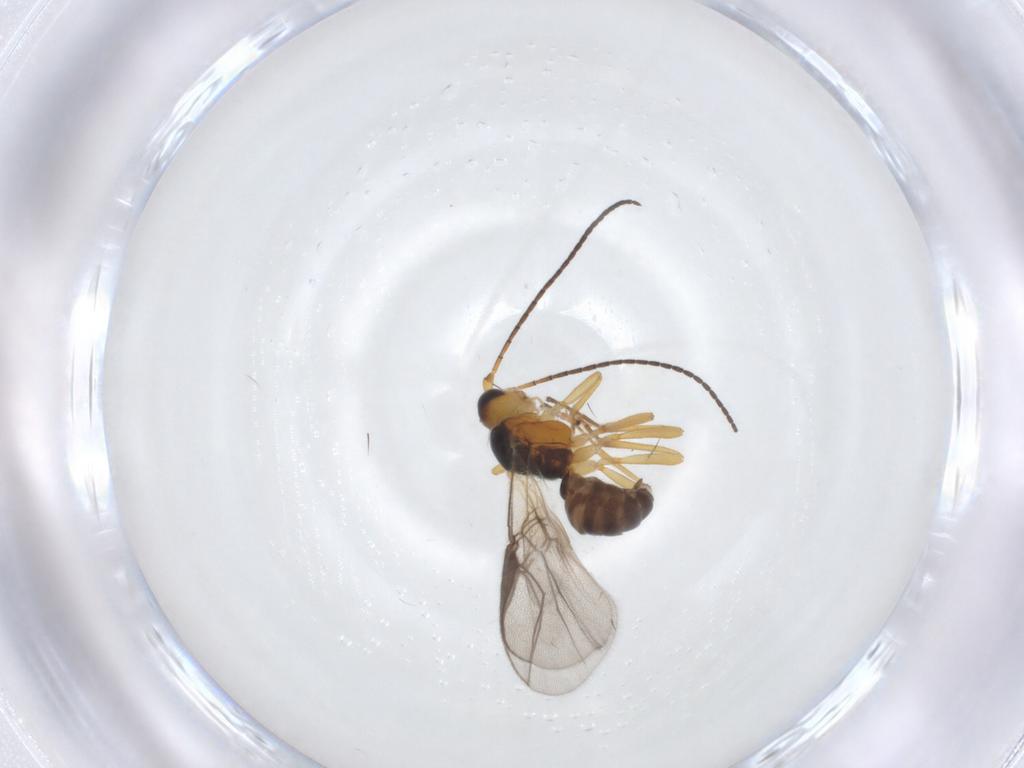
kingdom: Animalia
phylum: Arthropoda
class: Insecta
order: Hymenoptera
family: Braconidae
